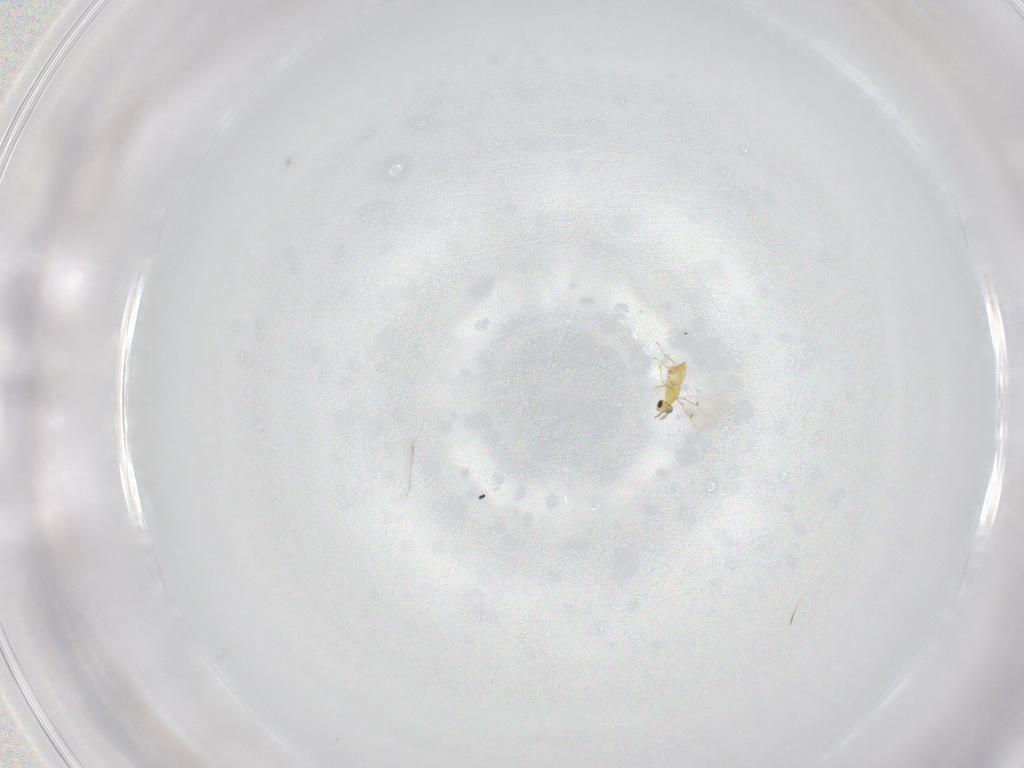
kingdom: Animalia
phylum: Arthropoda
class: Insecta
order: Hymenoptera
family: Trichogrammatidae
